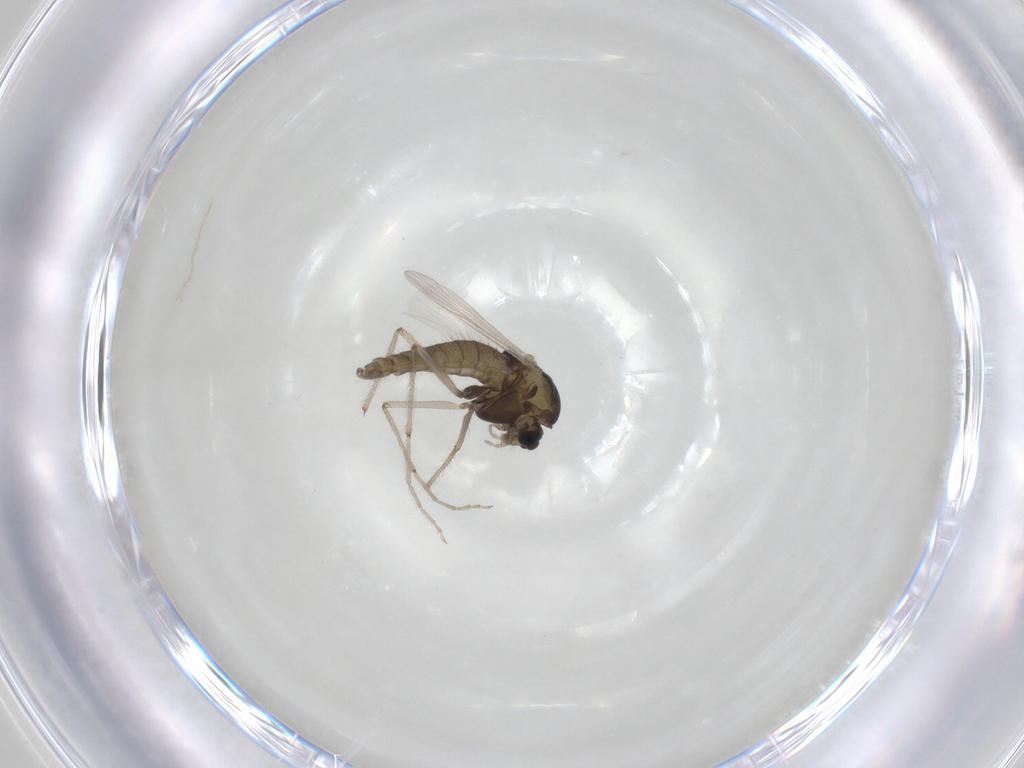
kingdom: Animalia
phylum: Arthropoda
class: Insecta
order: Diptera
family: Chironomidae
